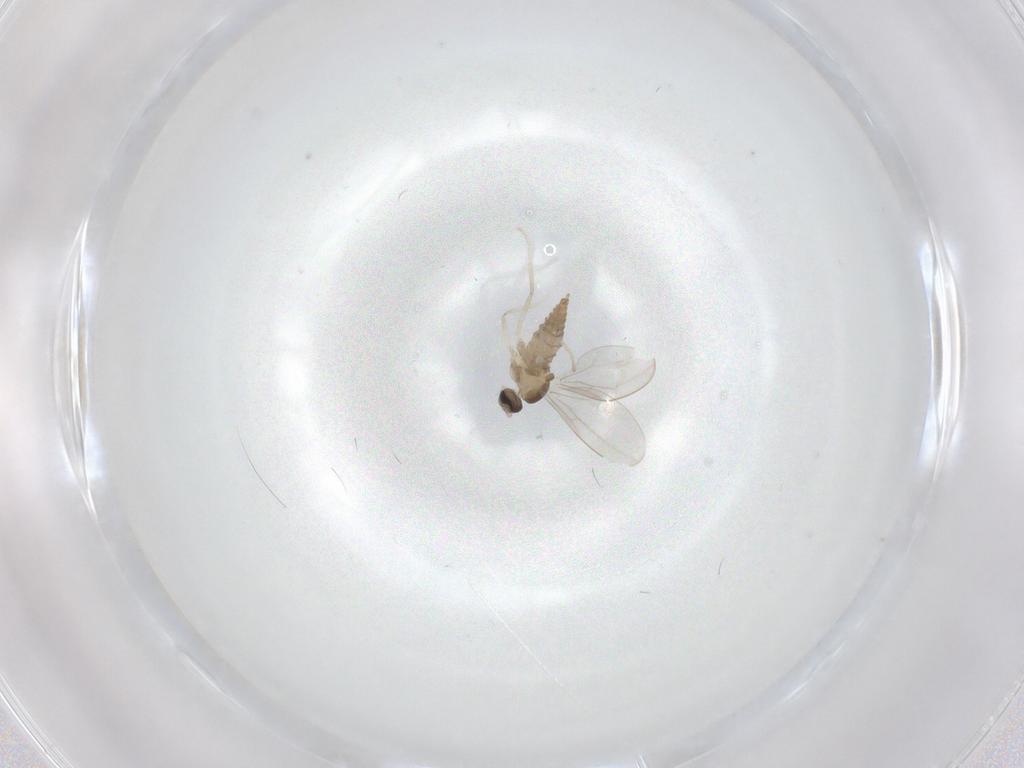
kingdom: Animalia
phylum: Arthropoda
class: Insecta
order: Diptera
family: Cecidomyiidae
